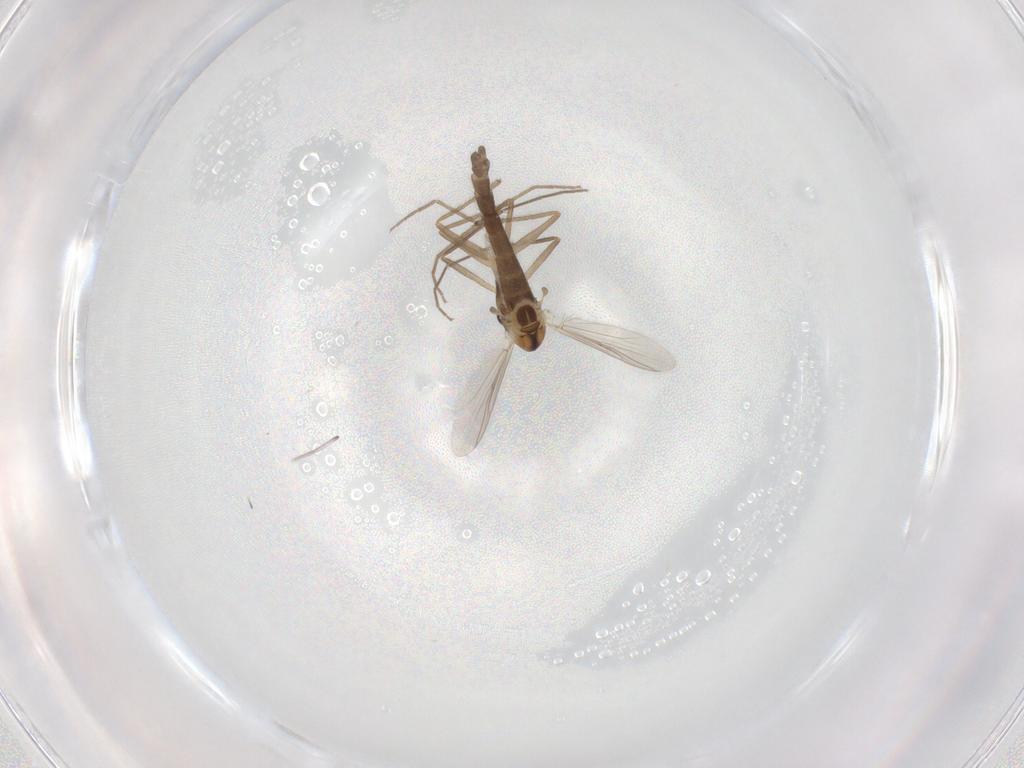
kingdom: Animalia
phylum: Arthropoda
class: Insecta
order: Diptera
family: Chironomidae
